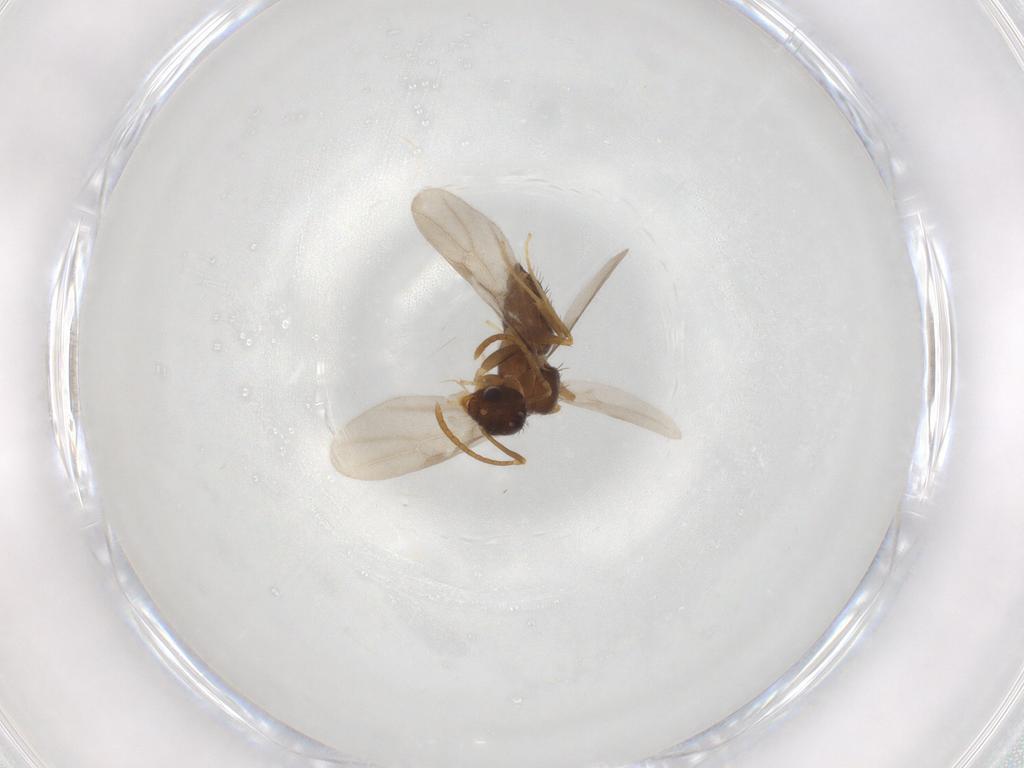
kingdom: Animalia
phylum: Arthropoda
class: Insecta
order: Hymenoptera
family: Formicidae
